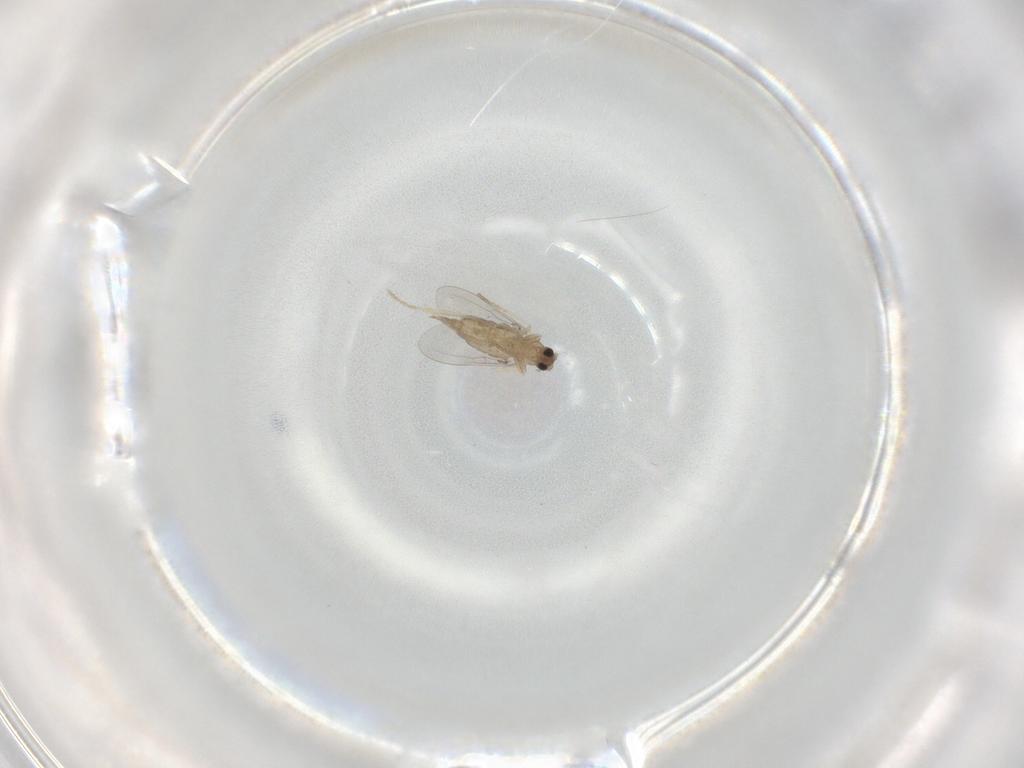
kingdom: Animalia
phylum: Arthropoda
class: Insecta
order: Diptera
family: Cecidomyiidae
